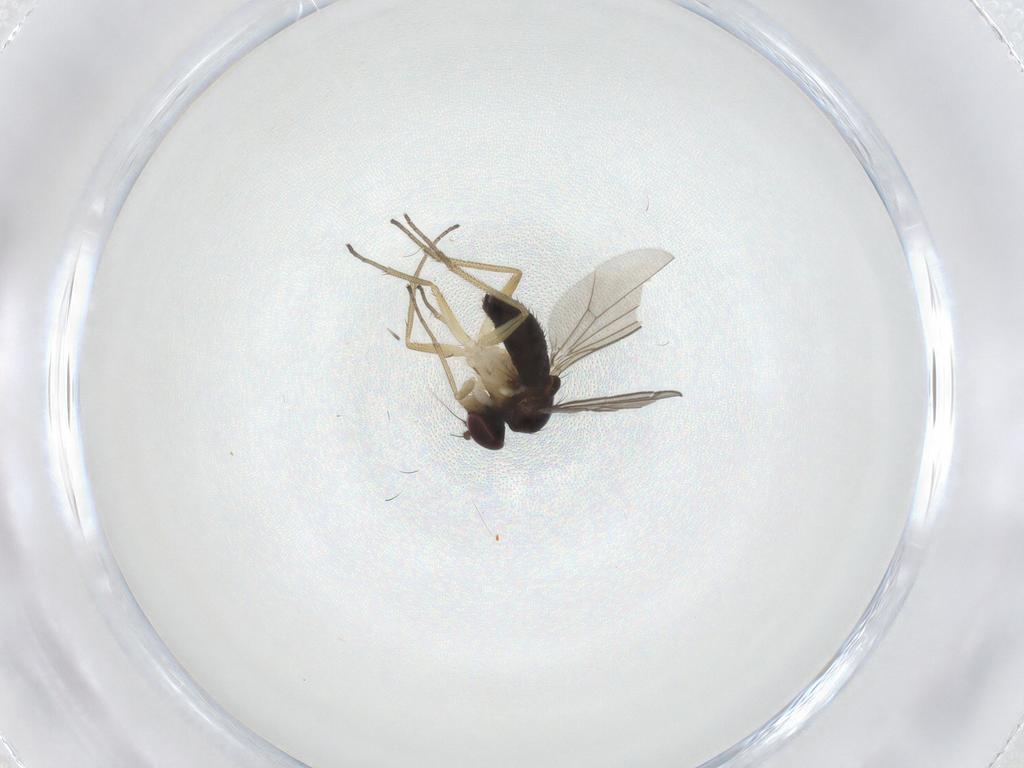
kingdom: Animalia
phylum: Arthropoda
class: Insecta
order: Diptera
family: Dolichopodidae
